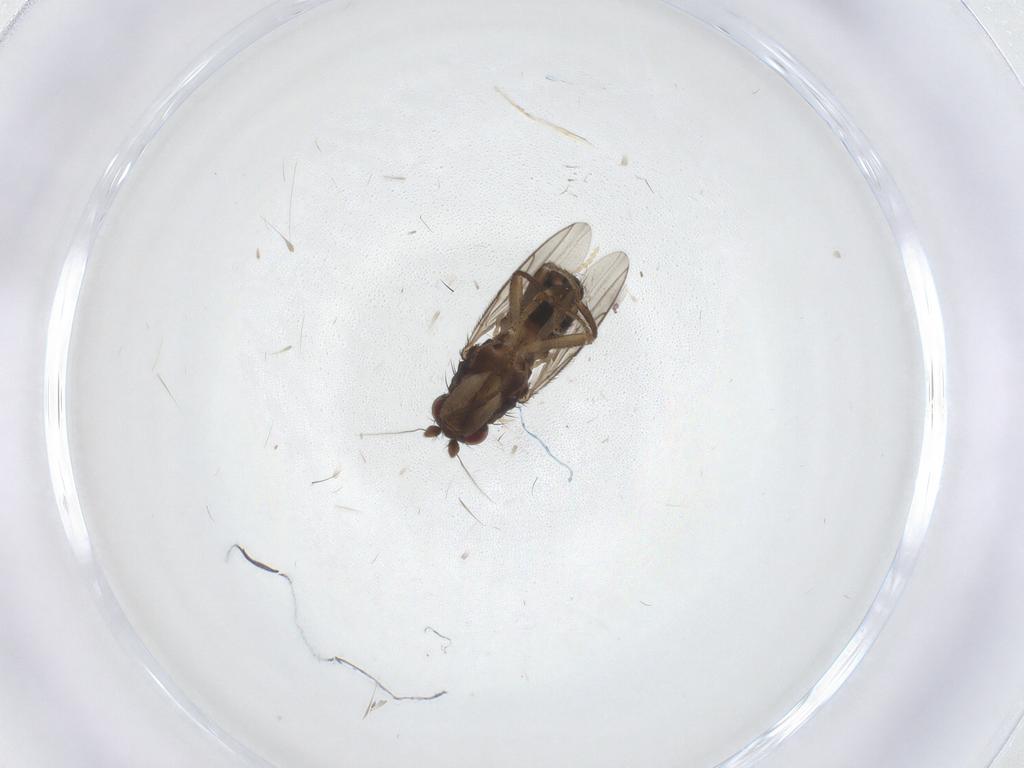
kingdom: Animalia
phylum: Arthropoda
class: Insecta
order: Diptera
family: Sphaeroceridae
